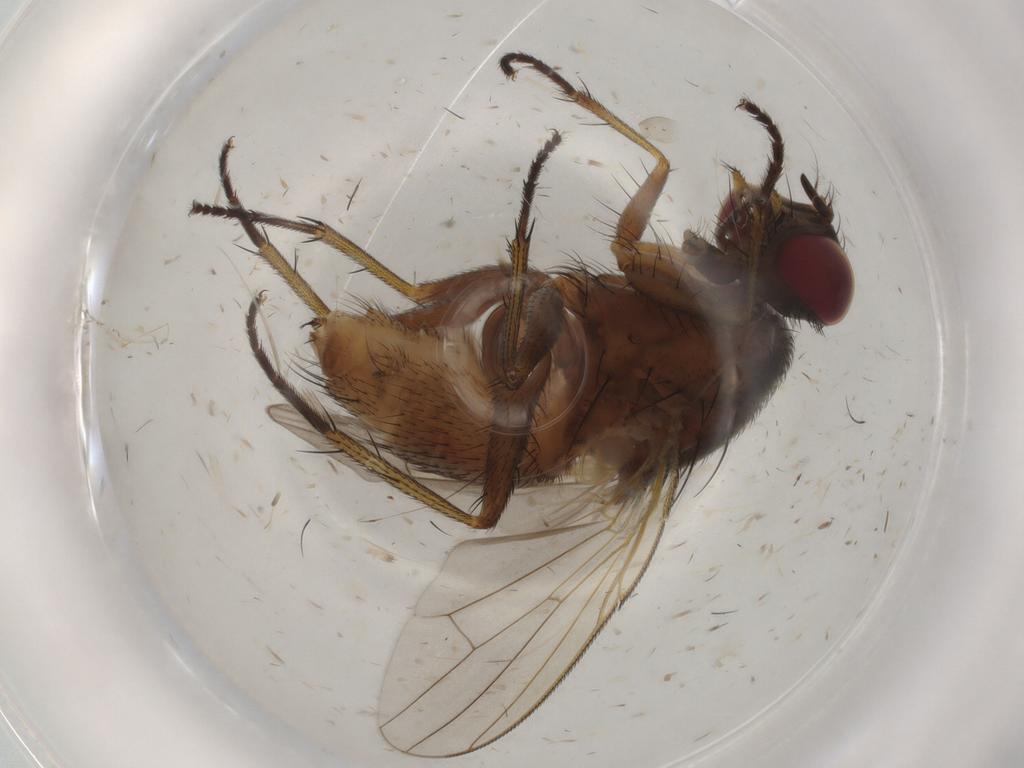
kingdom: Animalia
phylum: Arthropoda
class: Insecta
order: Diptera
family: Muscidae
